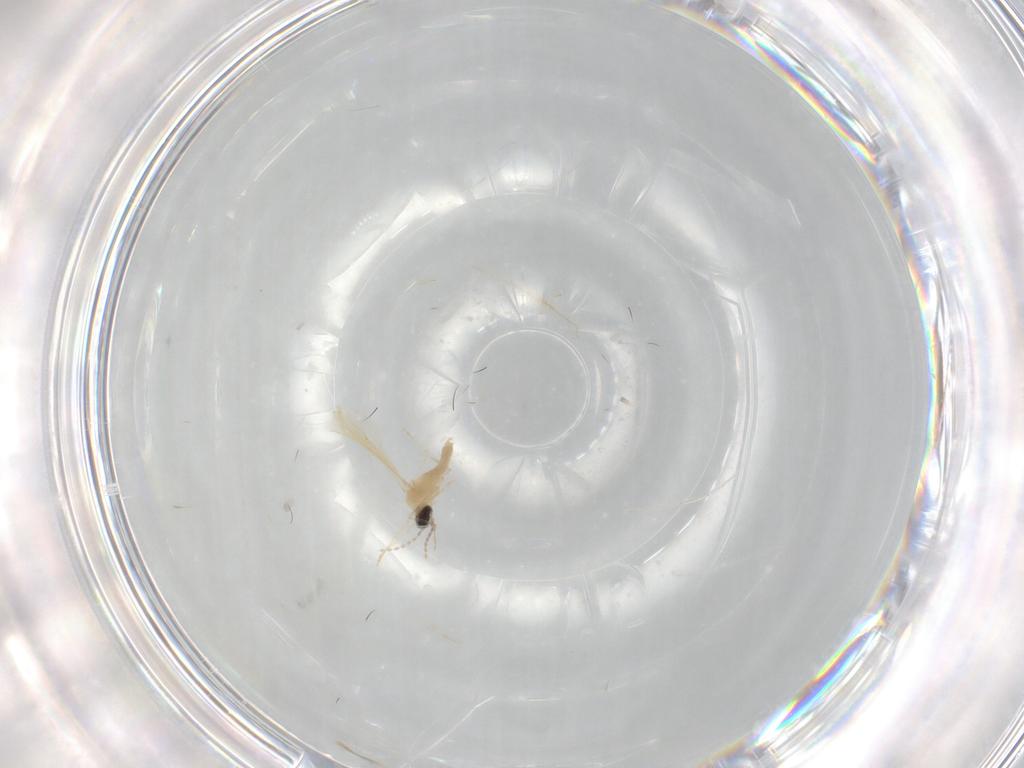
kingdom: Animalia
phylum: Arthropoda
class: Insecta
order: Diptera
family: Cecidomyiidae
